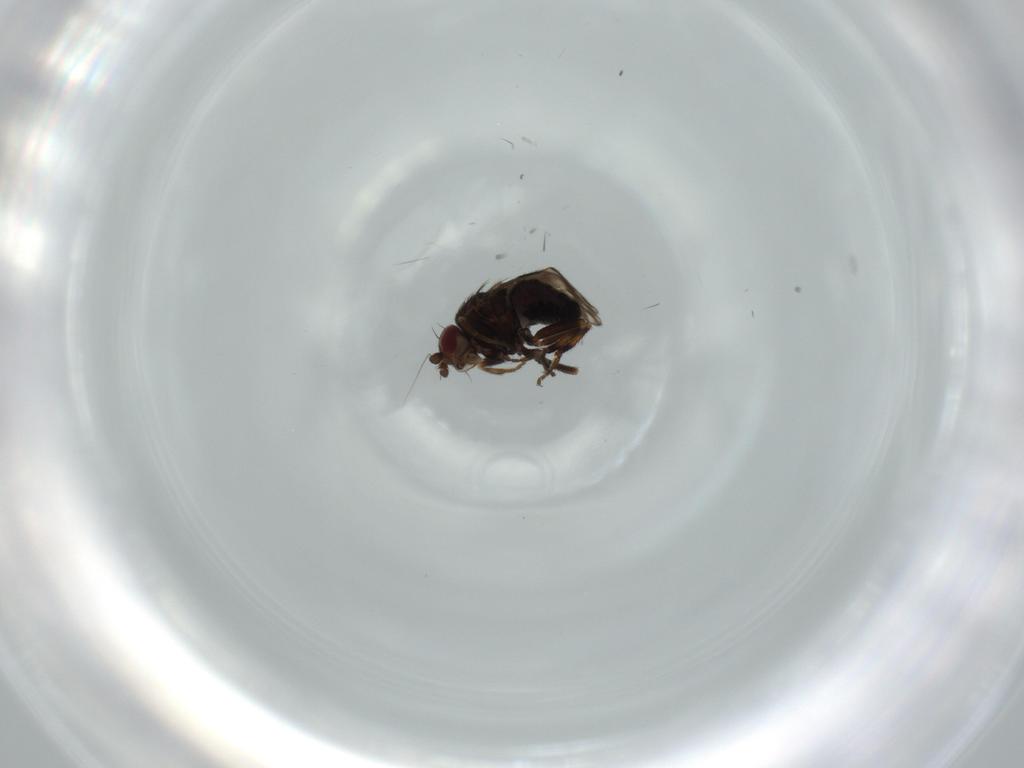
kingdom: Animalia
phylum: Arthropoda
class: Insecta
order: Diptera
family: Sphaeroceridae
